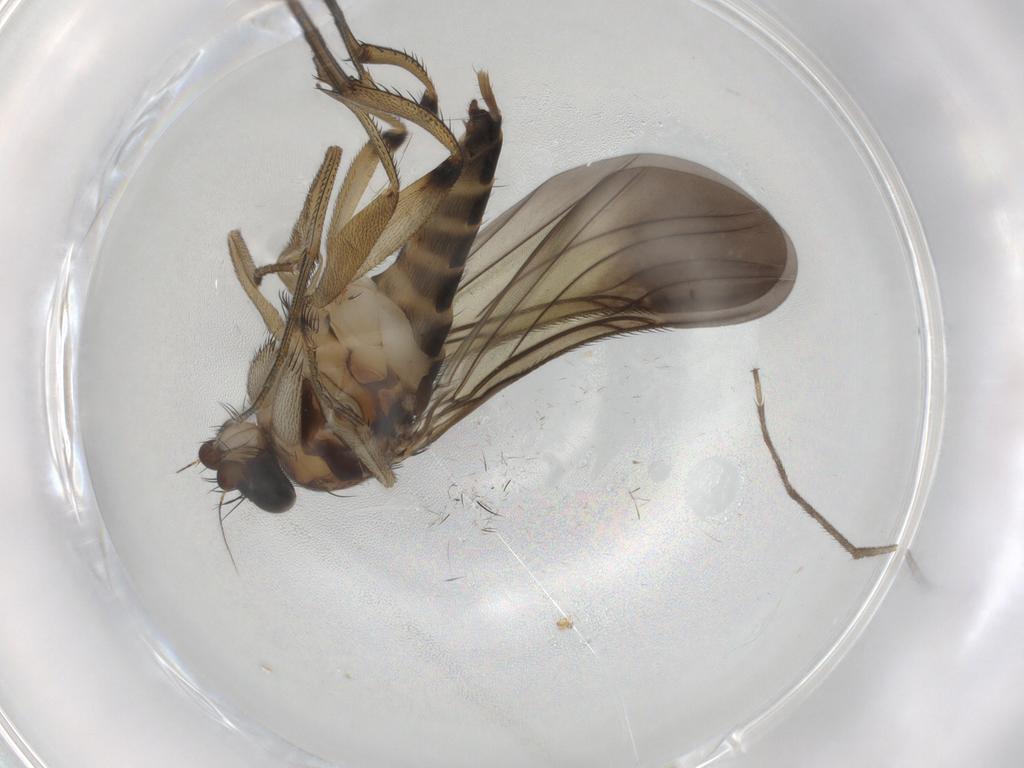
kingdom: Animalia
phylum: Arthropoda
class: Insecta
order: Diptera
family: Phoridae
